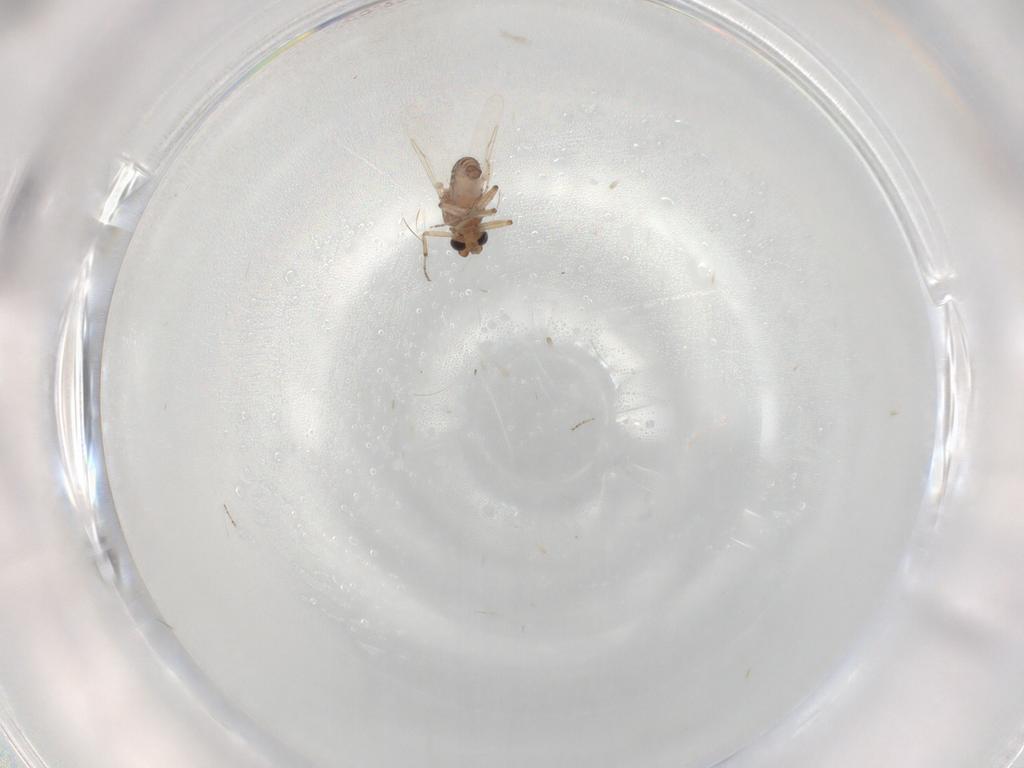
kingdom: Animalia
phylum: Arthropoda
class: Insecta
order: Diptera
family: Ceratopogonidae
